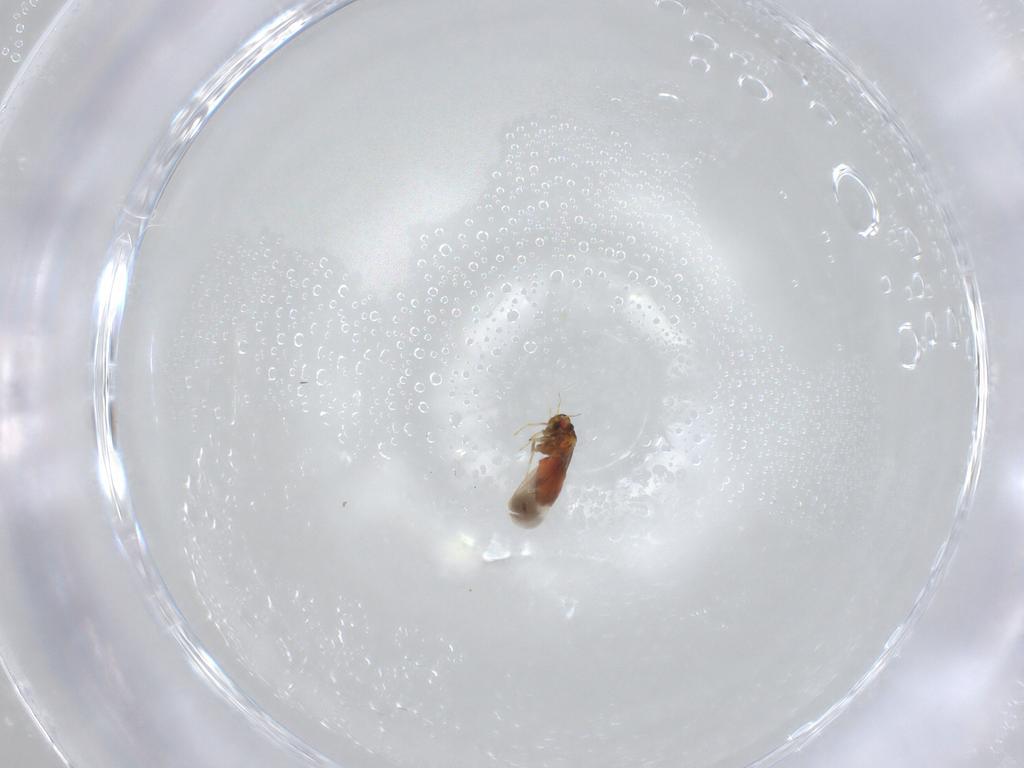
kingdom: Animalia
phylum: Arthropoda
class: Insecta
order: Hemiptera
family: Aleyrodidae
